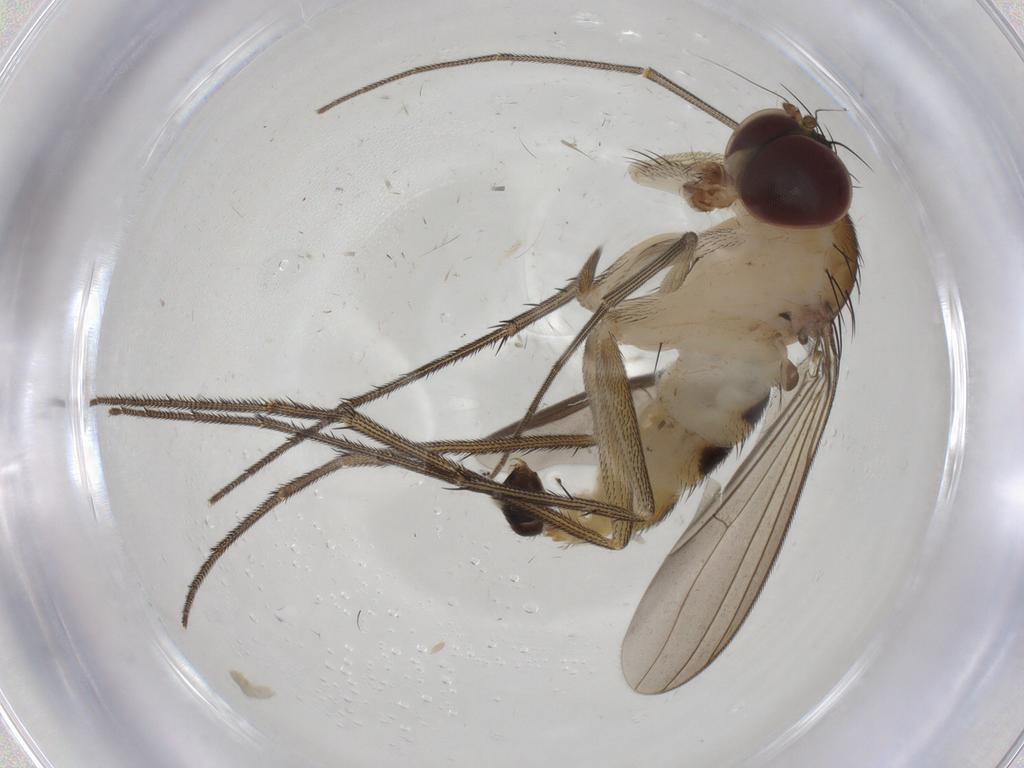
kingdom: Animalia
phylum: Arthropoda
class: Insecta
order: Diptera
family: Dolichopodidae
